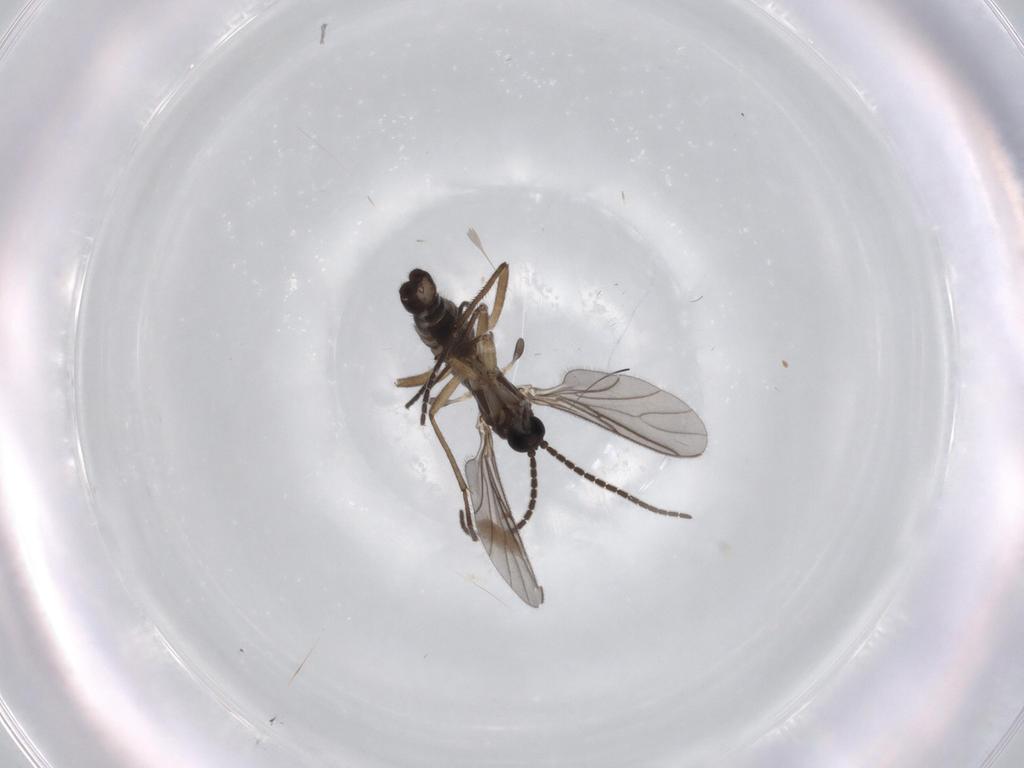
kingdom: Animalia
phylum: Arthropoda
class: Insecta
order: Diptera
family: Sciaridae
